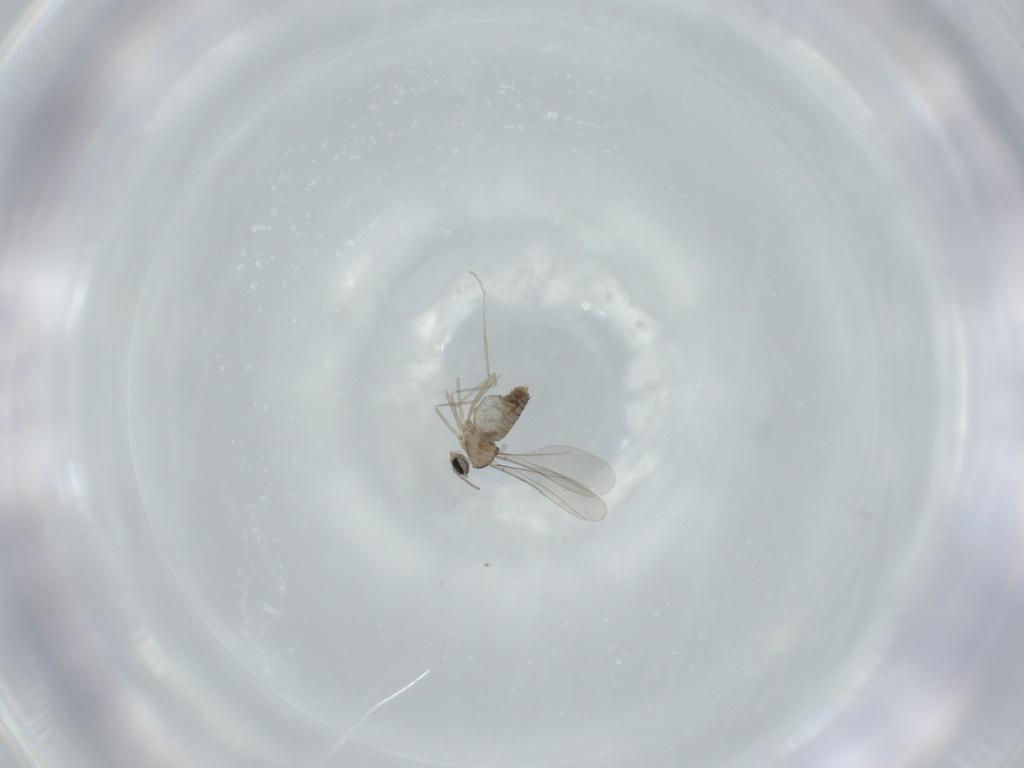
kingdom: Animalia
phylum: Arthropoda
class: Insecta
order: Diptera
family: Cecidomyiidae
